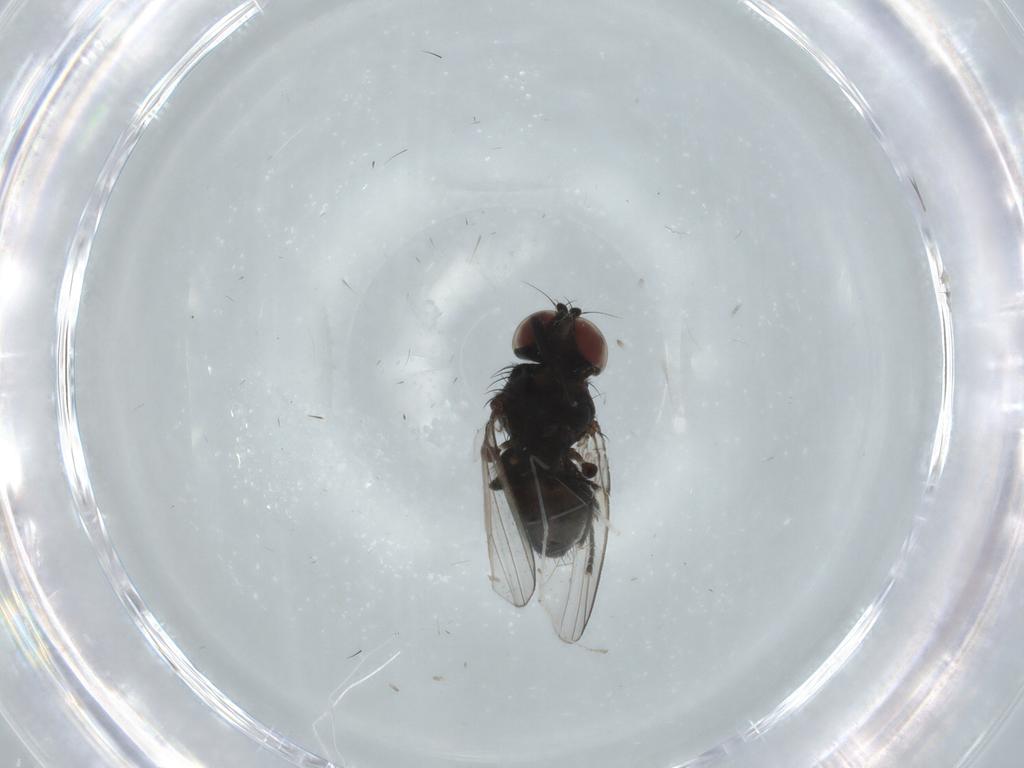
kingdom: Animalia
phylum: Arthropoda
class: Insecta
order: Diptera
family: Milichiidae
